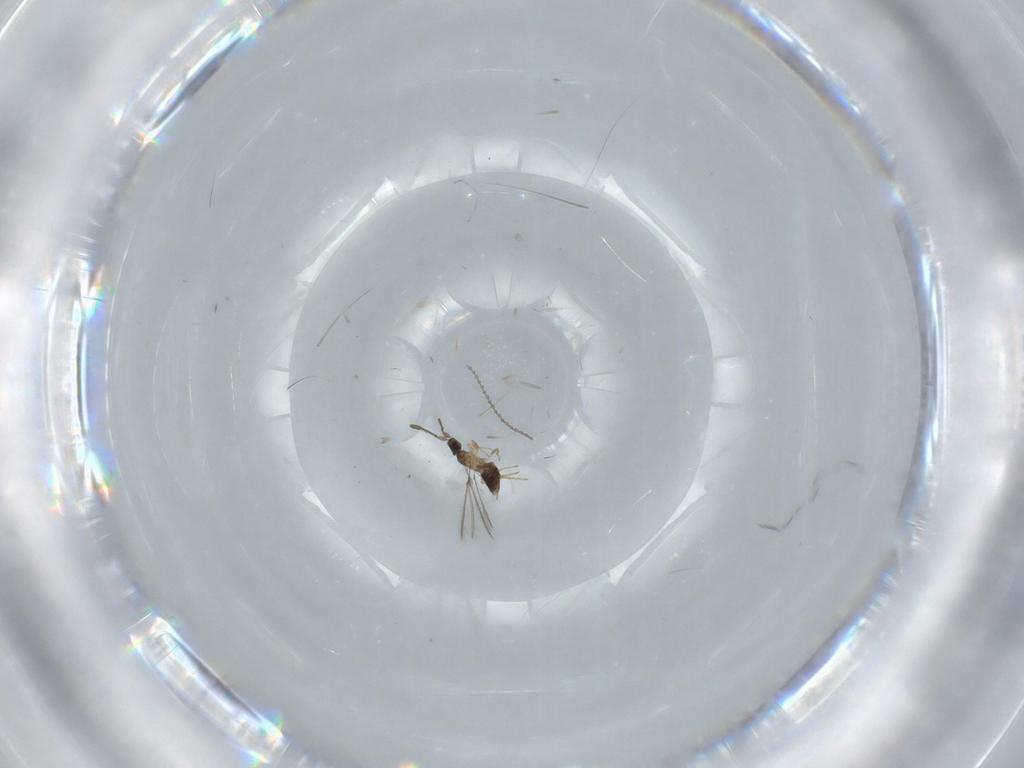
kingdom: Animalia
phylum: Arthropoda
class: Insecta
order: Hymenoptera
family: Mymaridae
